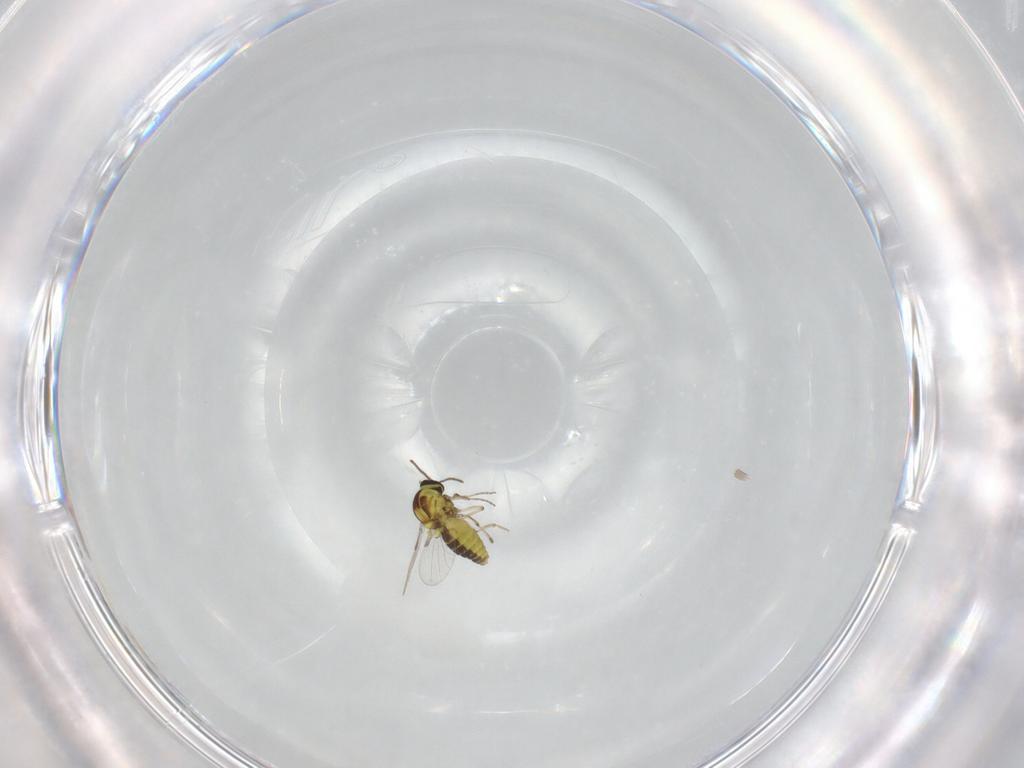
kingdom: Animalia
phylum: Arthropoda
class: Insecta
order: Diptera
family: Ceratopogonidae
